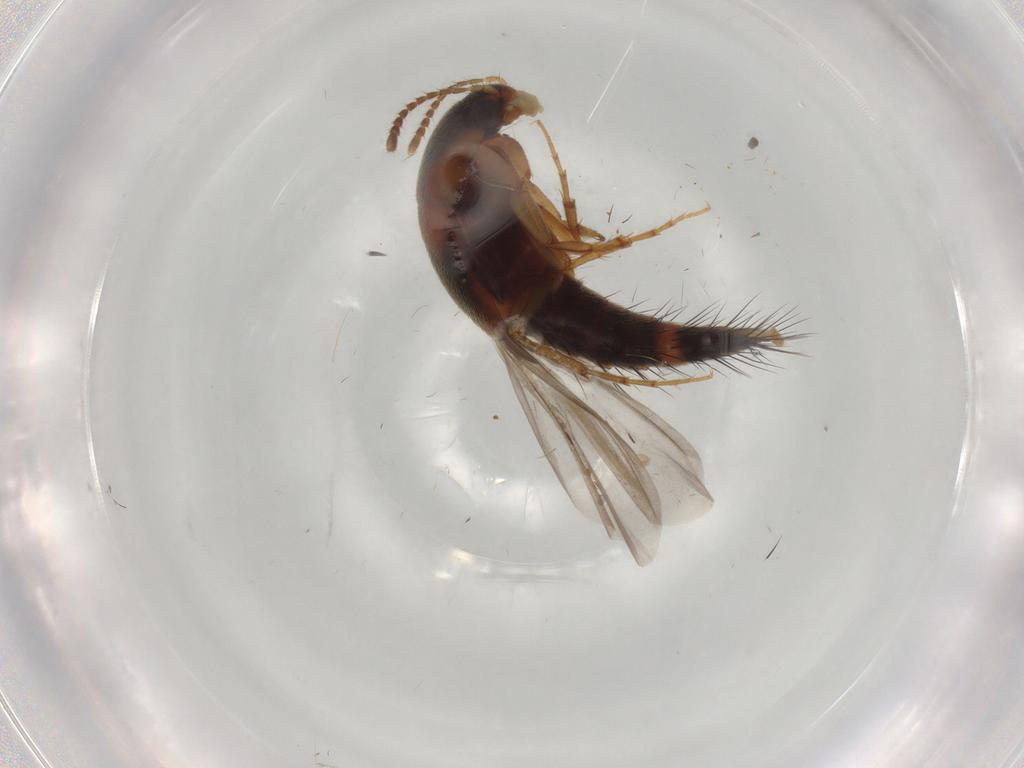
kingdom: Animalia
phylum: Arthropoda
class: Insecta
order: Coleoptera
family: Staphylinidae
